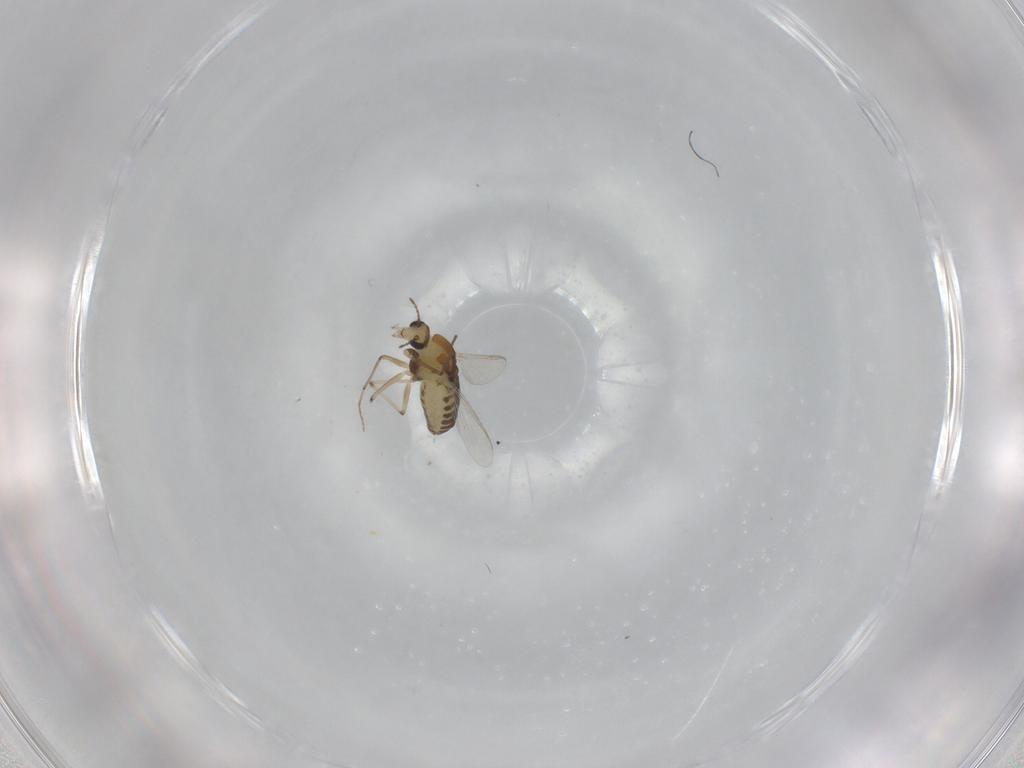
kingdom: Animalia
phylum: Arthropoda
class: Insecta
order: Diptera
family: Chironomidae
